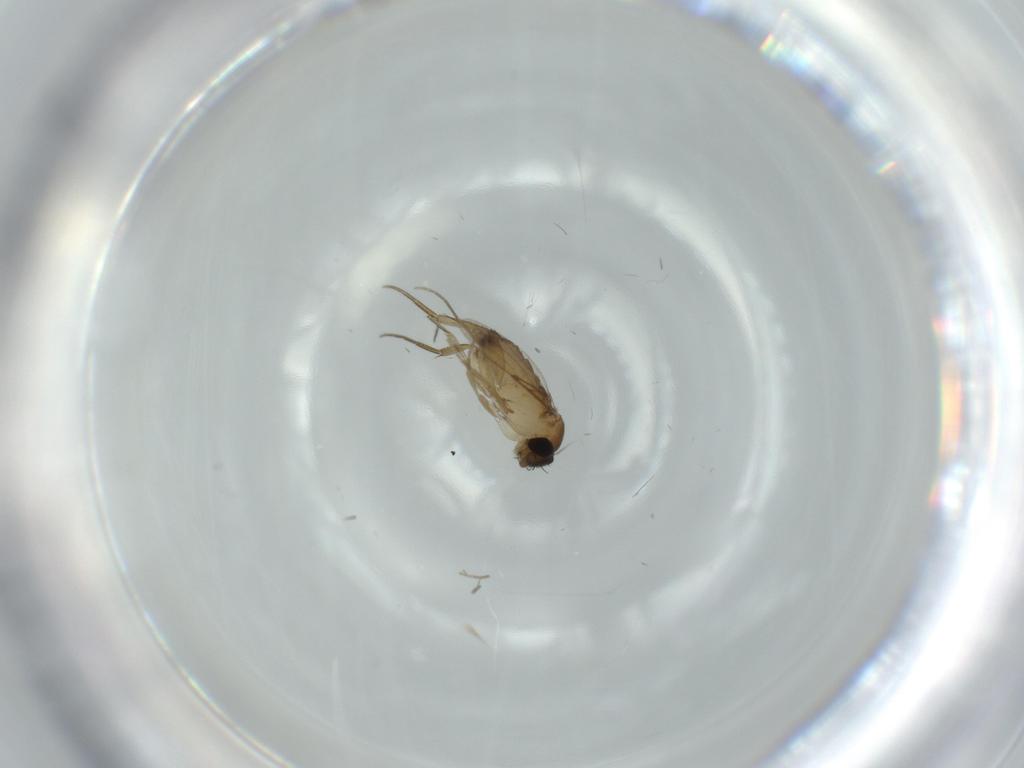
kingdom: Animalia
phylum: Arthropoda
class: Insecta
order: Diptera
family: Phoridae
